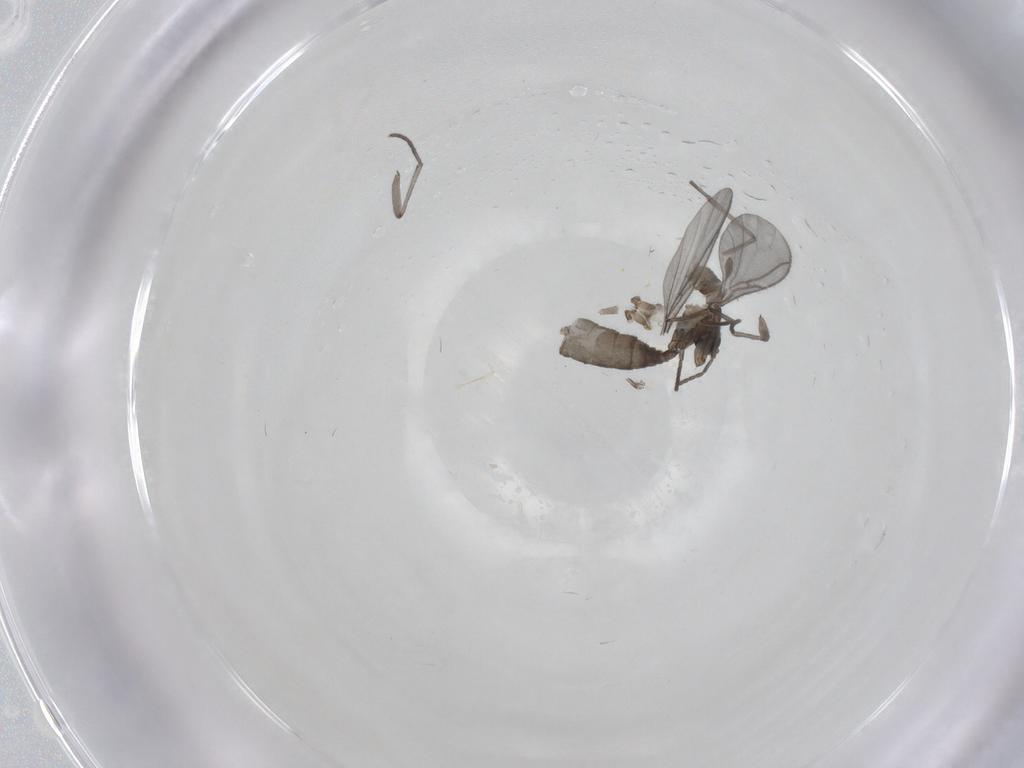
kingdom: Animalia
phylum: Arthropoda
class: Insecta
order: Diptera
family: Sciaridae
